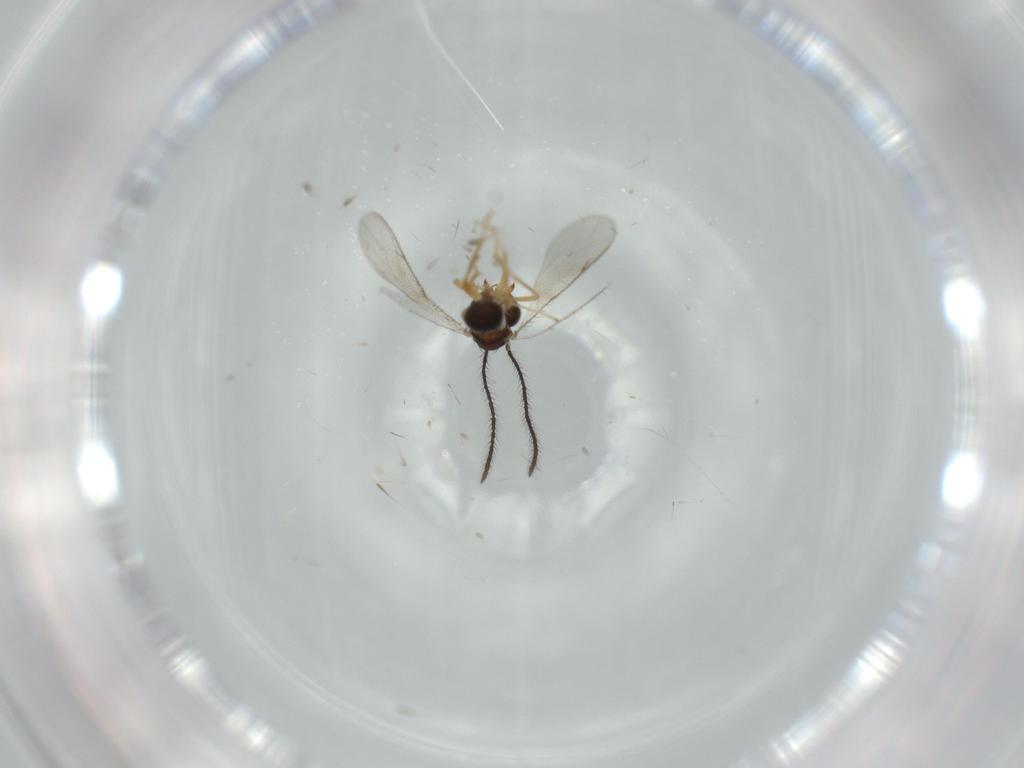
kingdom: Animalia
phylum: Arthropoda
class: Insecta
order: Hymenoptera
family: Diparidae
